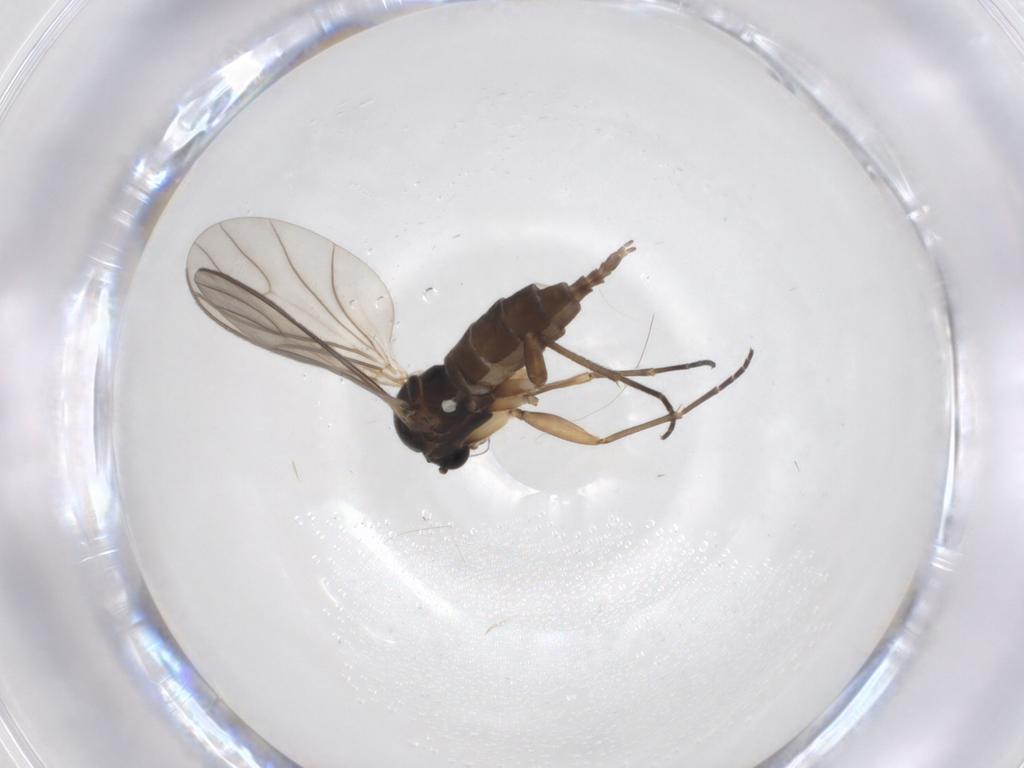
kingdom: Animalia
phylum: Arthropoda
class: Insecta
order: Diptera
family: Sciaridae
